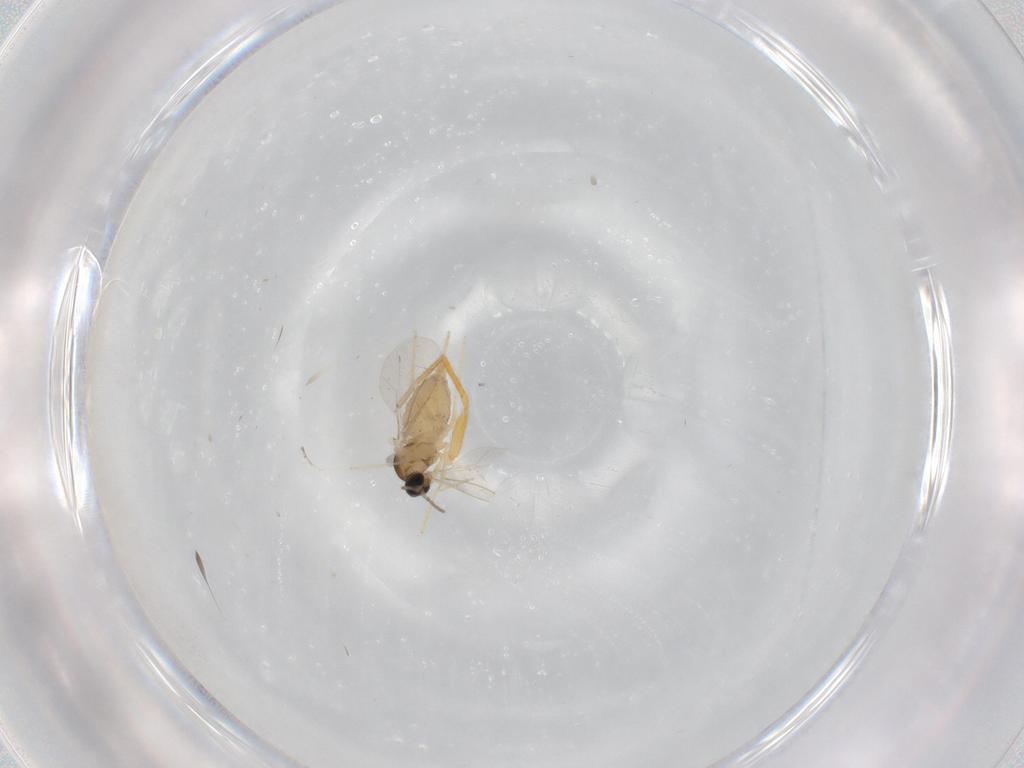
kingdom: Animalia
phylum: Arthropoda
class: Insecta
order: Diptera
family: Cecidomyiidae
